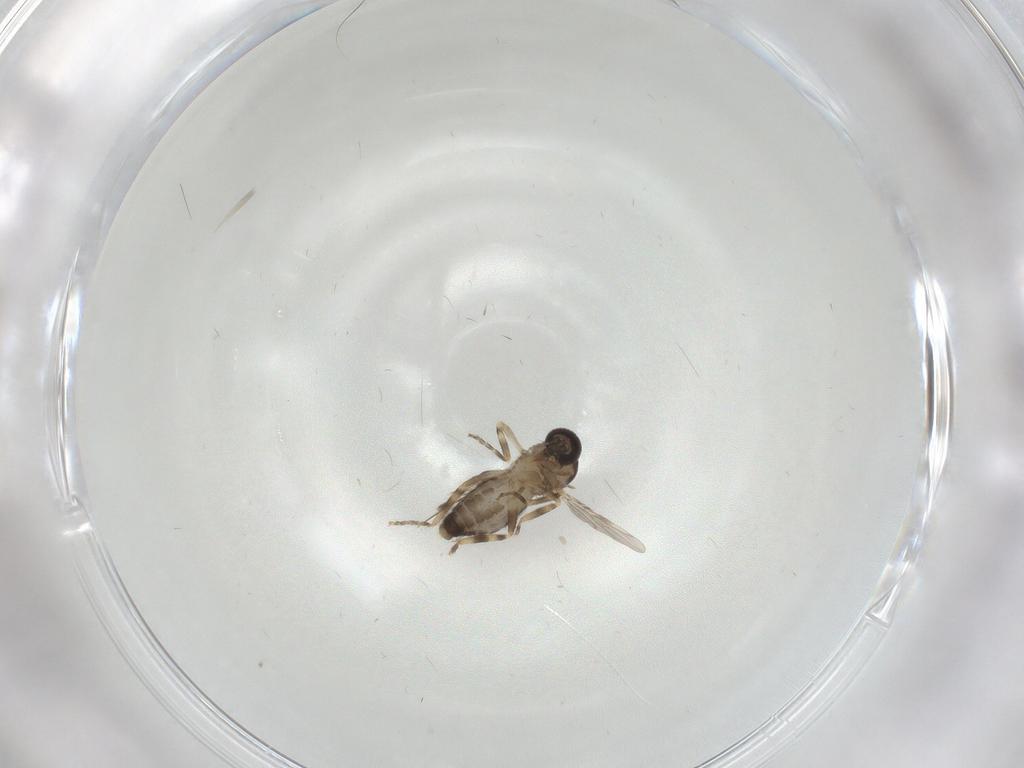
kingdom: Animalia
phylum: Arthropoda
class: Insecta
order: Diptera
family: Ceratopogonidae
